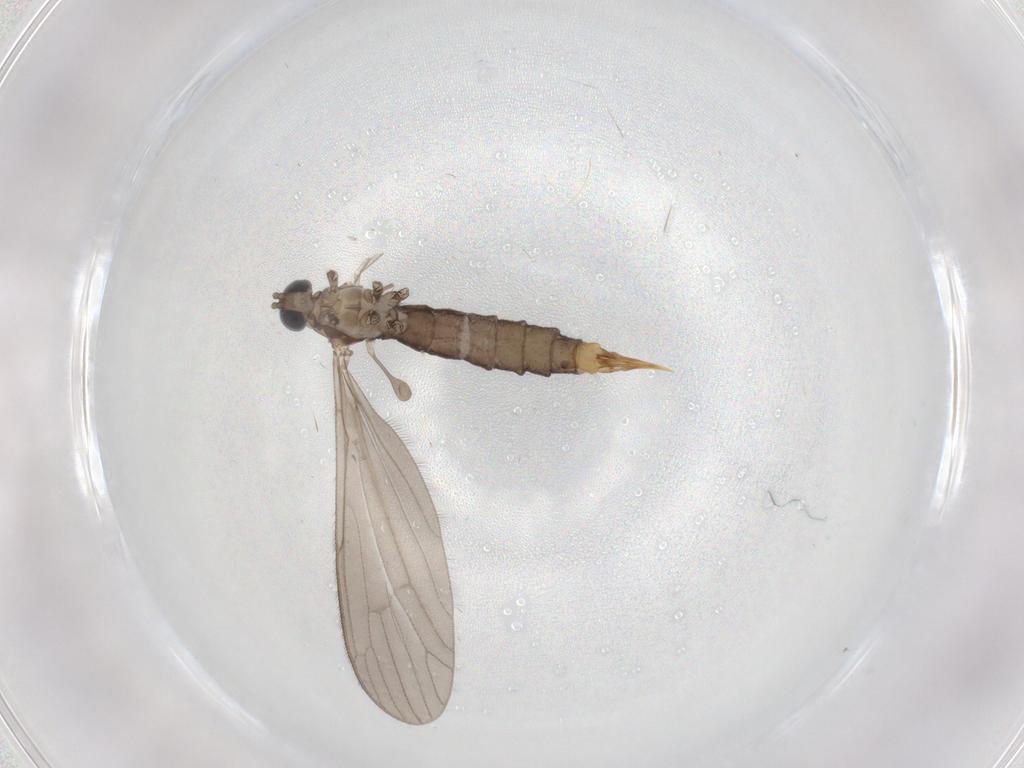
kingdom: Animalia
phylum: Arthropoda
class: Insecta
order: Diptera
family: Limoniidae
